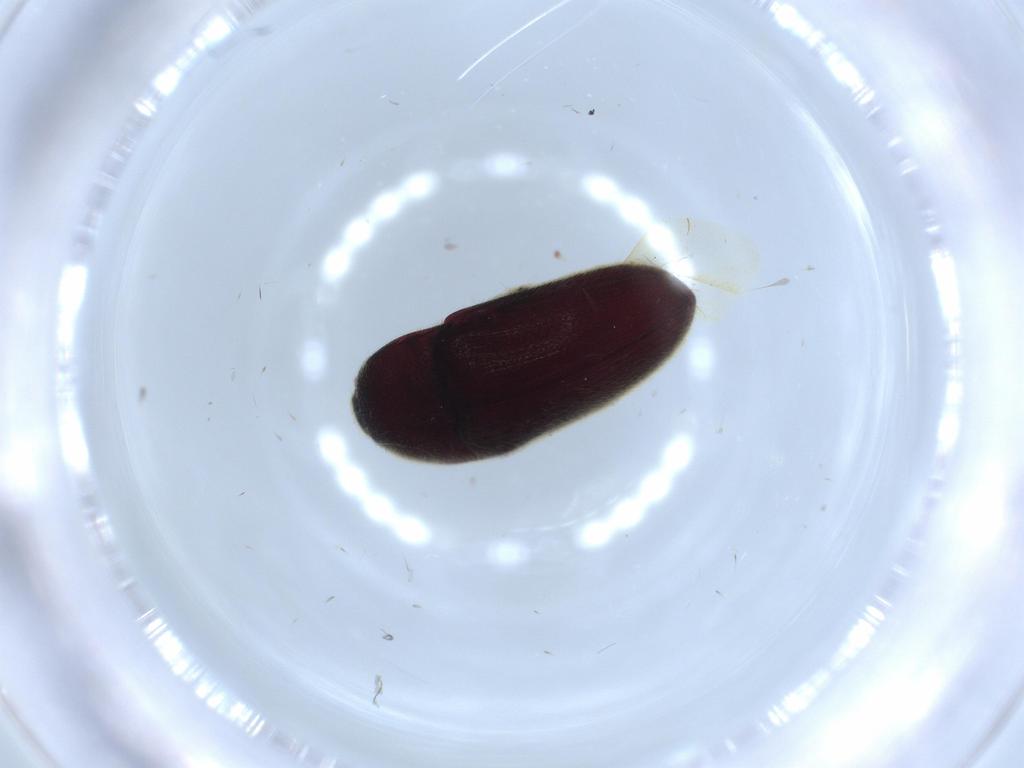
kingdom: Animalia
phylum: Arthropoda
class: Insecta
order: Coleoptera
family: Coccinellidae
